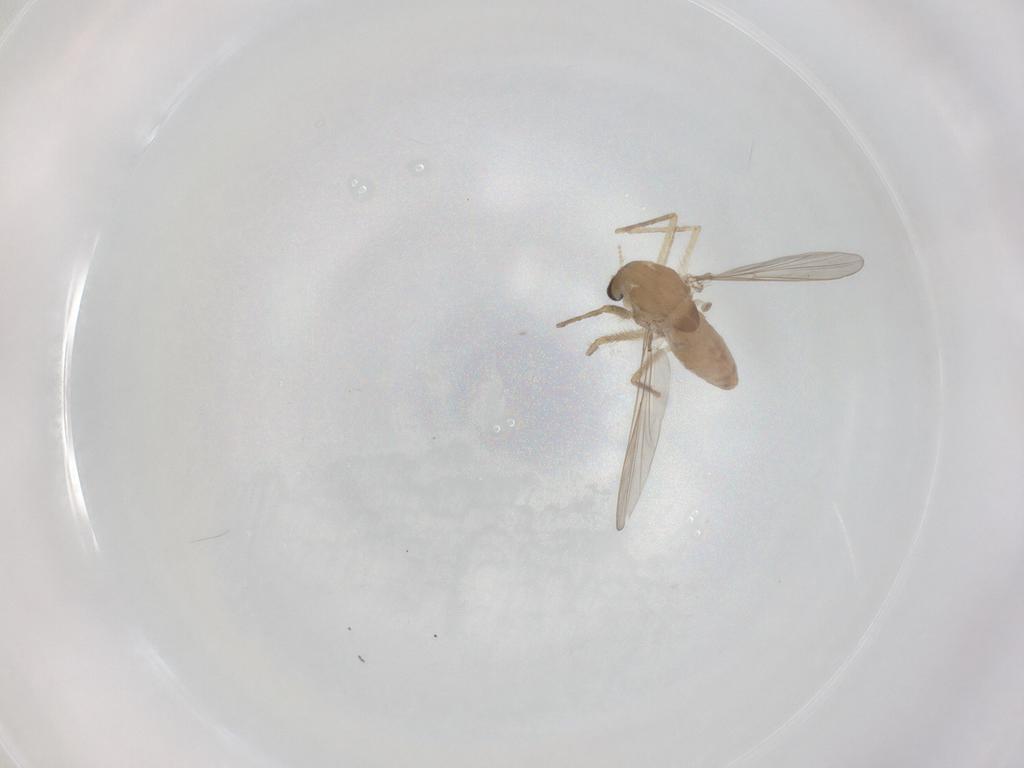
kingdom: Animalia
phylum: Arthropoda
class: Insecta
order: Diptera
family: Chironomidae
